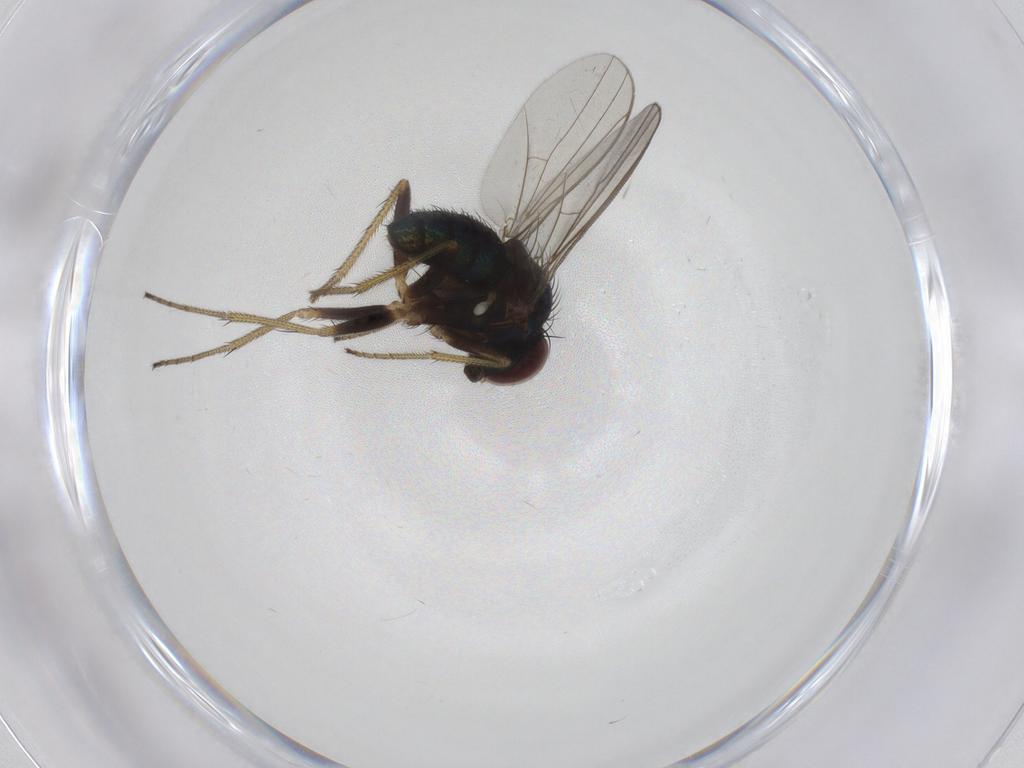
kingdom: Animalia
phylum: Arthropoda
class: Insecta
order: Diptera
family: Dolichopodidae
